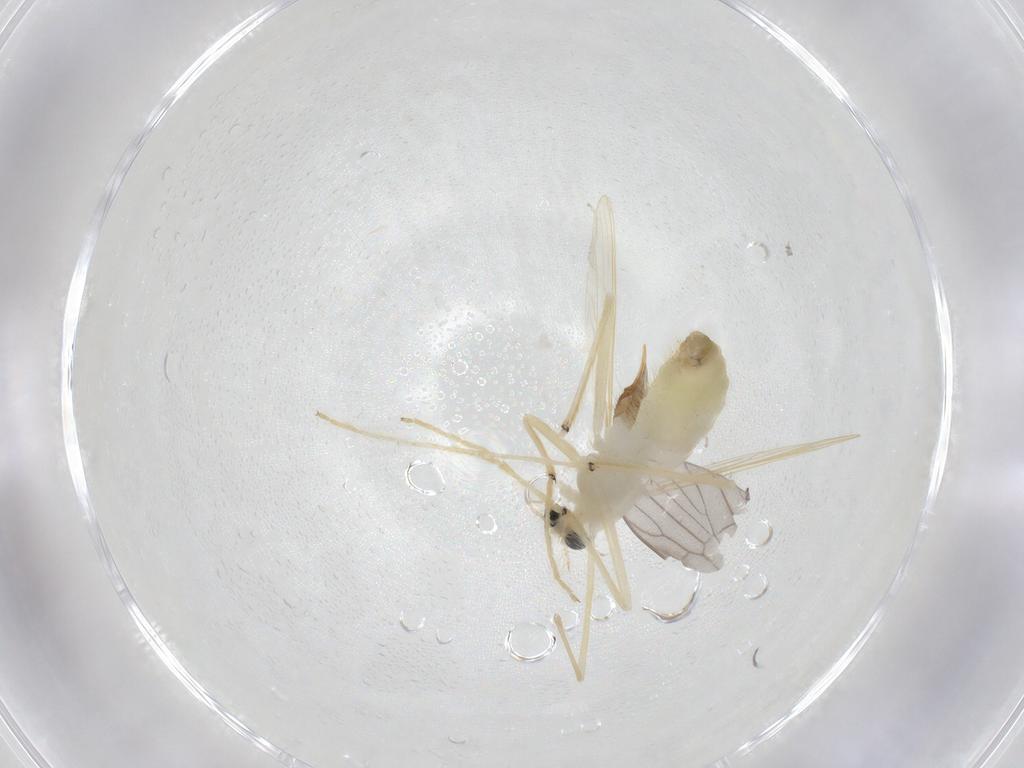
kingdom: Animalia
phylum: Arthropoda
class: Insecta
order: Diptera
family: Chironomidae
